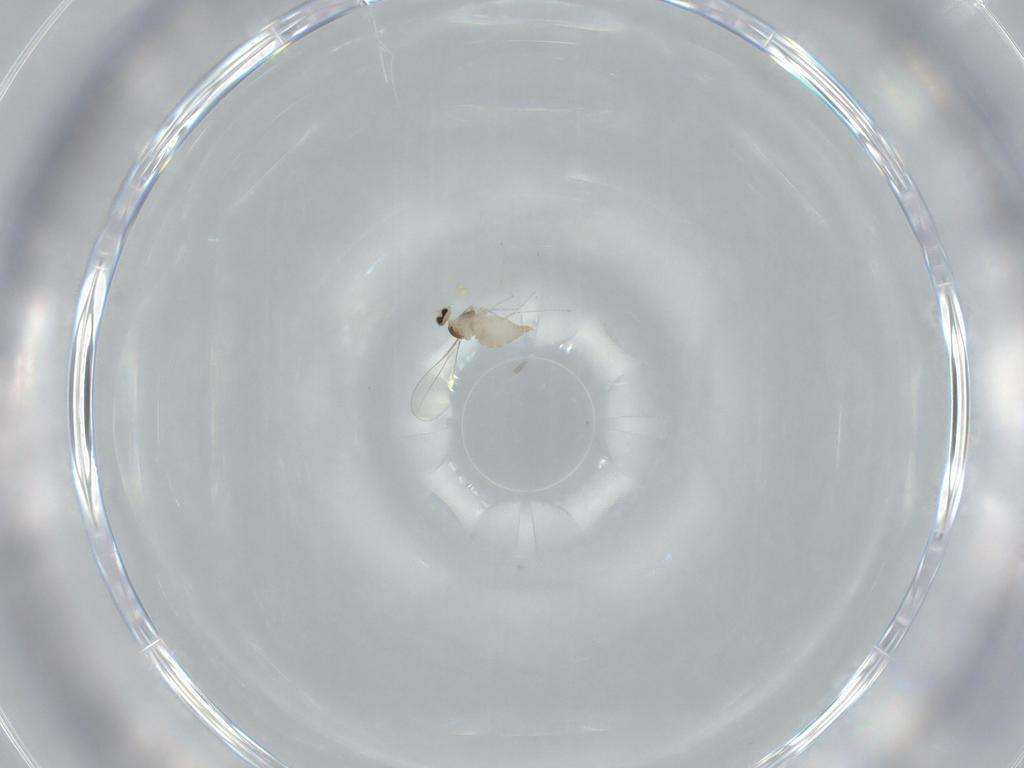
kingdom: Animalia
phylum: Arthropoda
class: Insecta
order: Diptera
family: Cecidomyiidae
